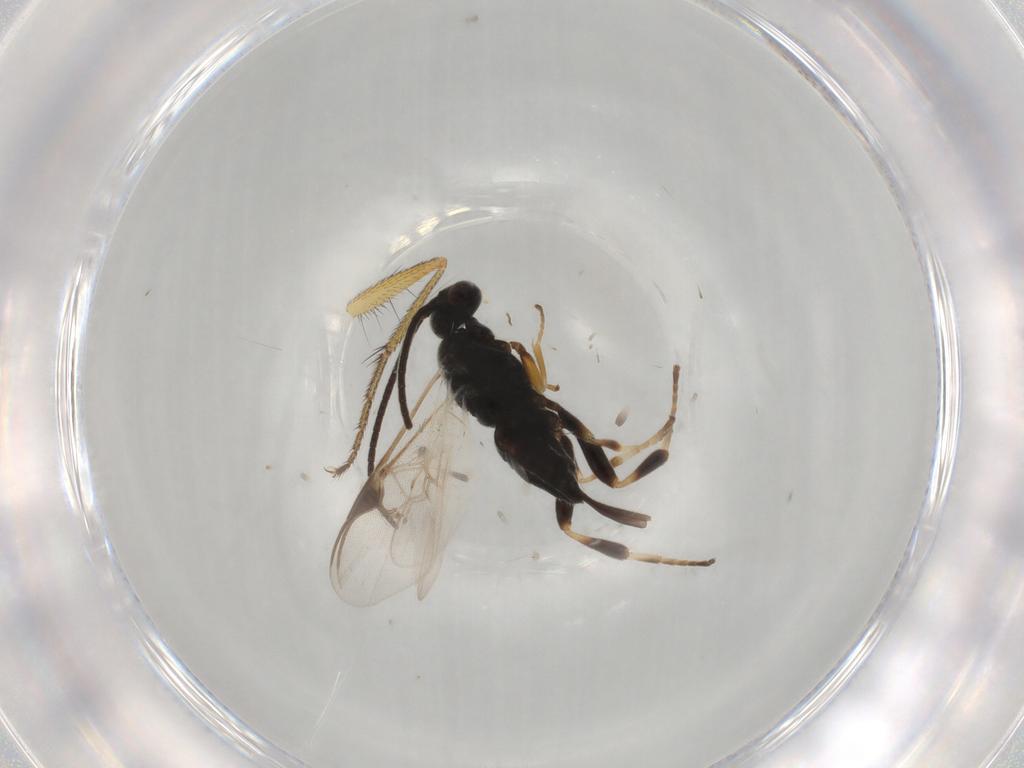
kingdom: Animalia
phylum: Arthropoda
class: Insecta
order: Hymenoptera
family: Braconidae
